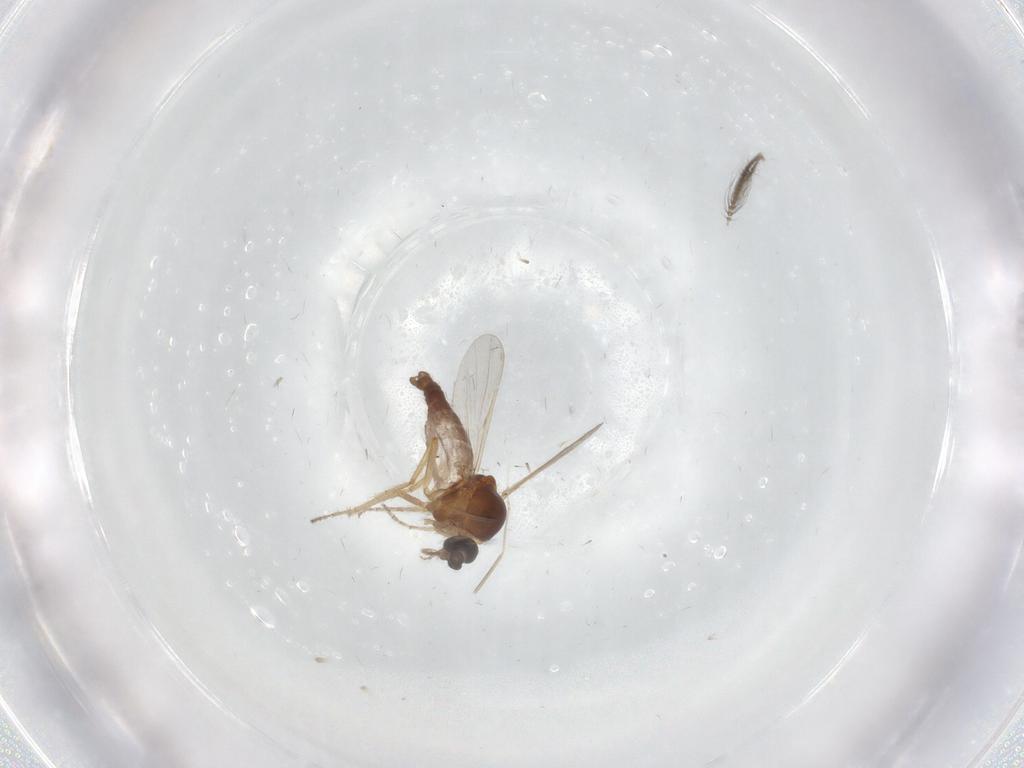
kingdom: Animalia
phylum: Arthropoda
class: Insecta
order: Diptera
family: Ceratopogonidae
